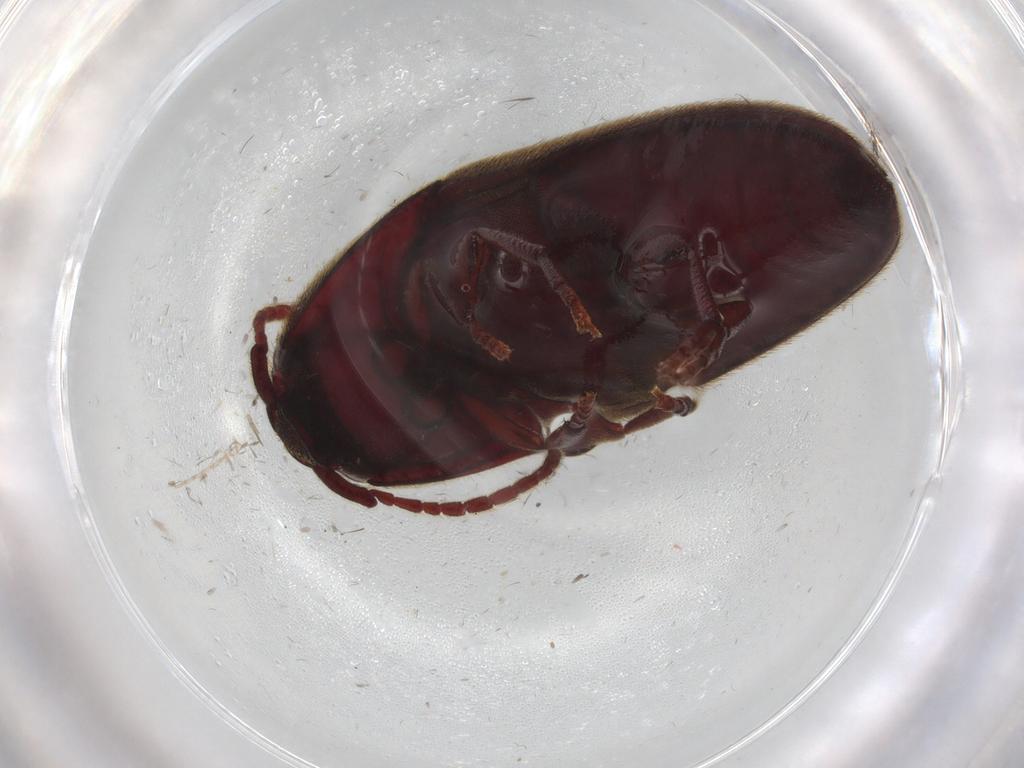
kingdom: Animalia
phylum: Arthropoda
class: Insecta
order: Coleoptera
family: Eucnemidae
